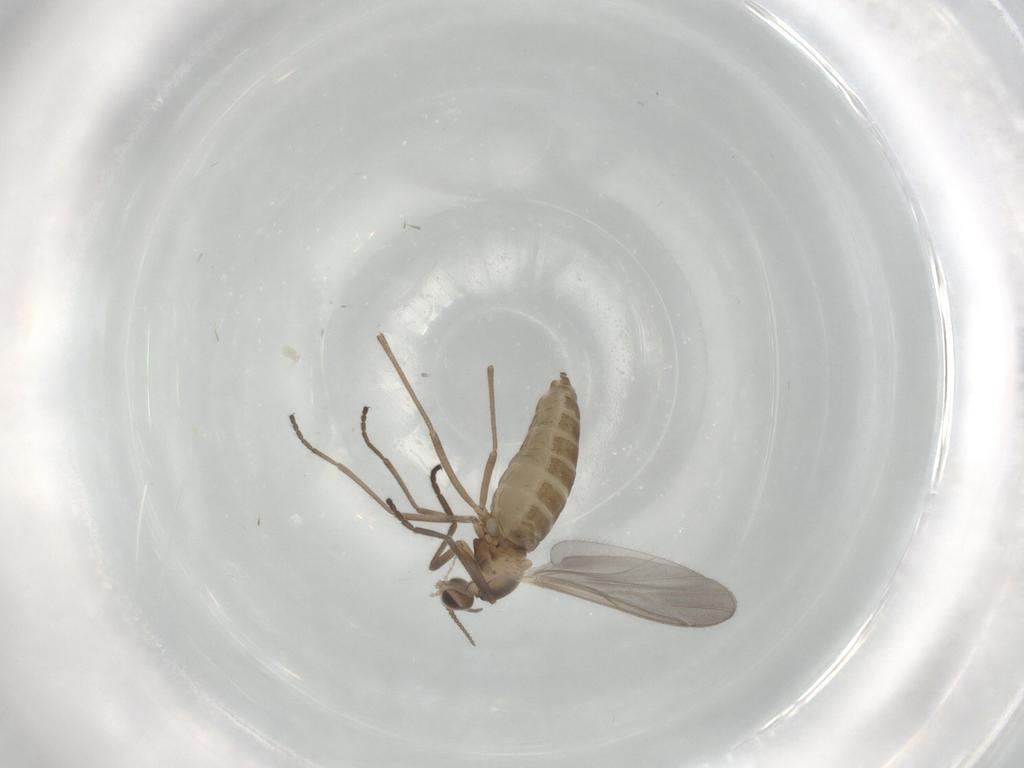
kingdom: Animalia
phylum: Arthropoda
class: Insecta
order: Diptera
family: Cecidomyiidae
